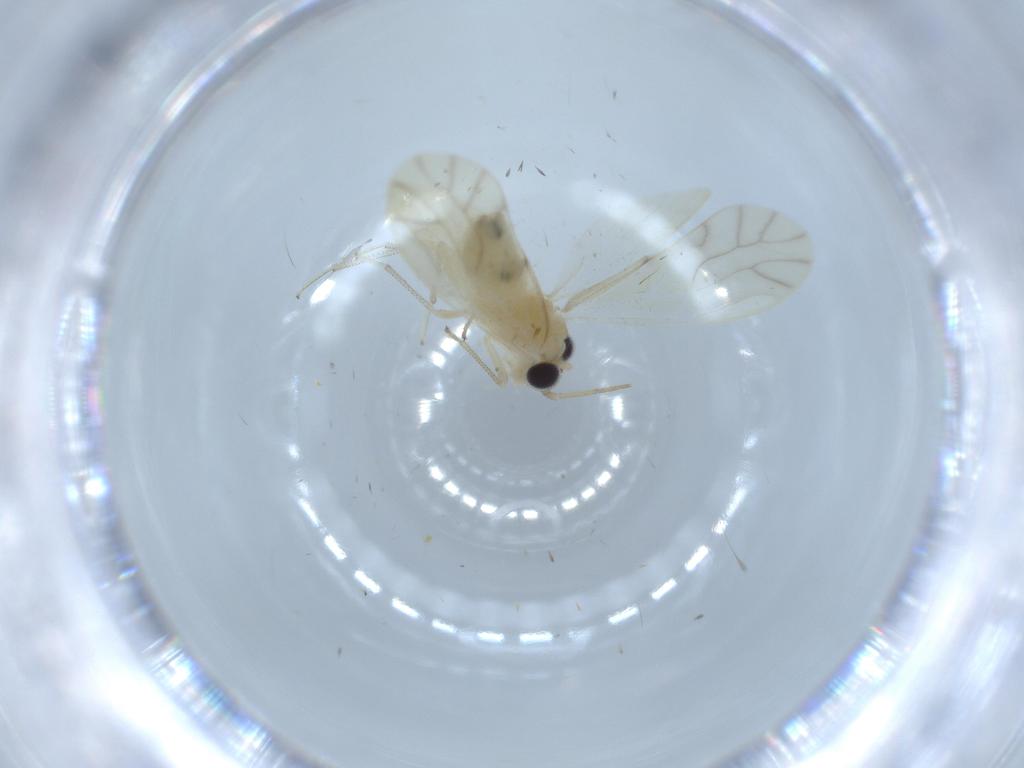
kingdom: Animalia
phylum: Arthropoda
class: Insecta
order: Psocodea
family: Caeciliusidae
